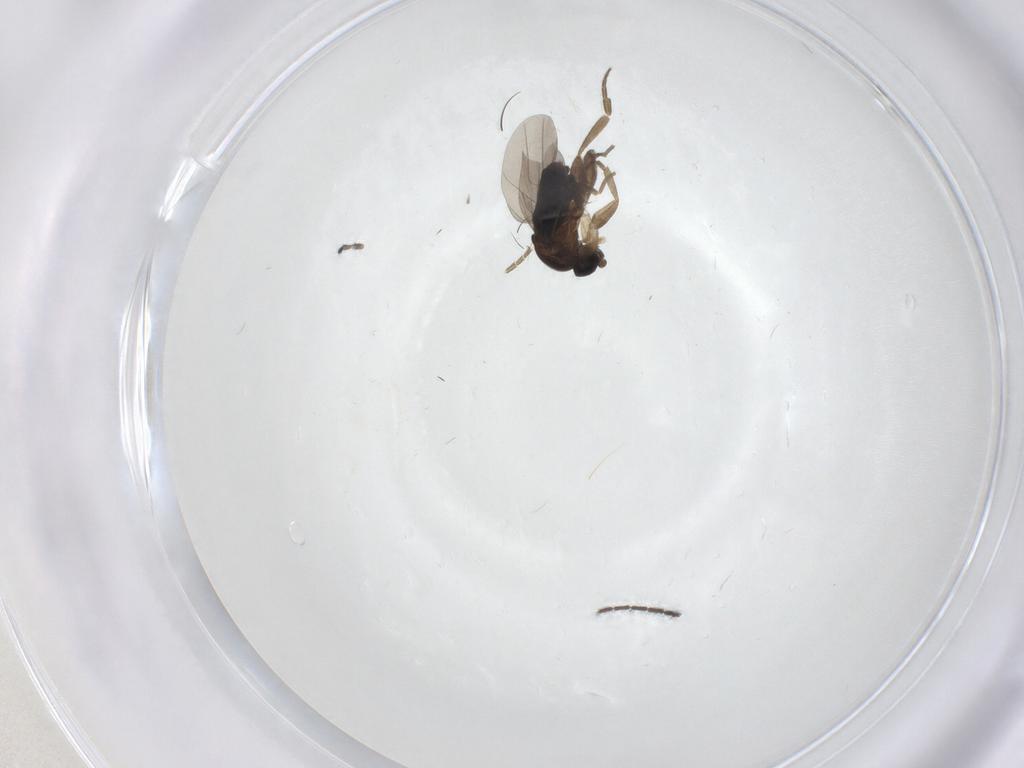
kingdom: Animalia
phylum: Arthropoda
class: Insecta
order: Diptera
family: Sciaridae
